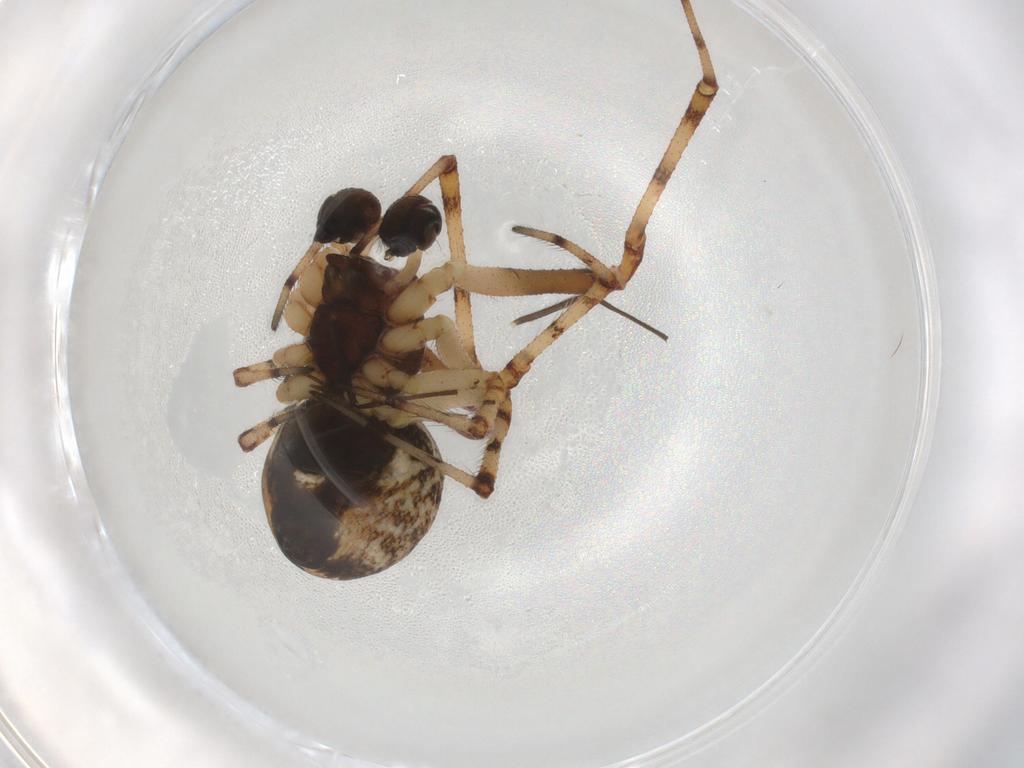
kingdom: Animalia
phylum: Arthropoda
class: Arachnida
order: Araneae
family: Theridiidae
